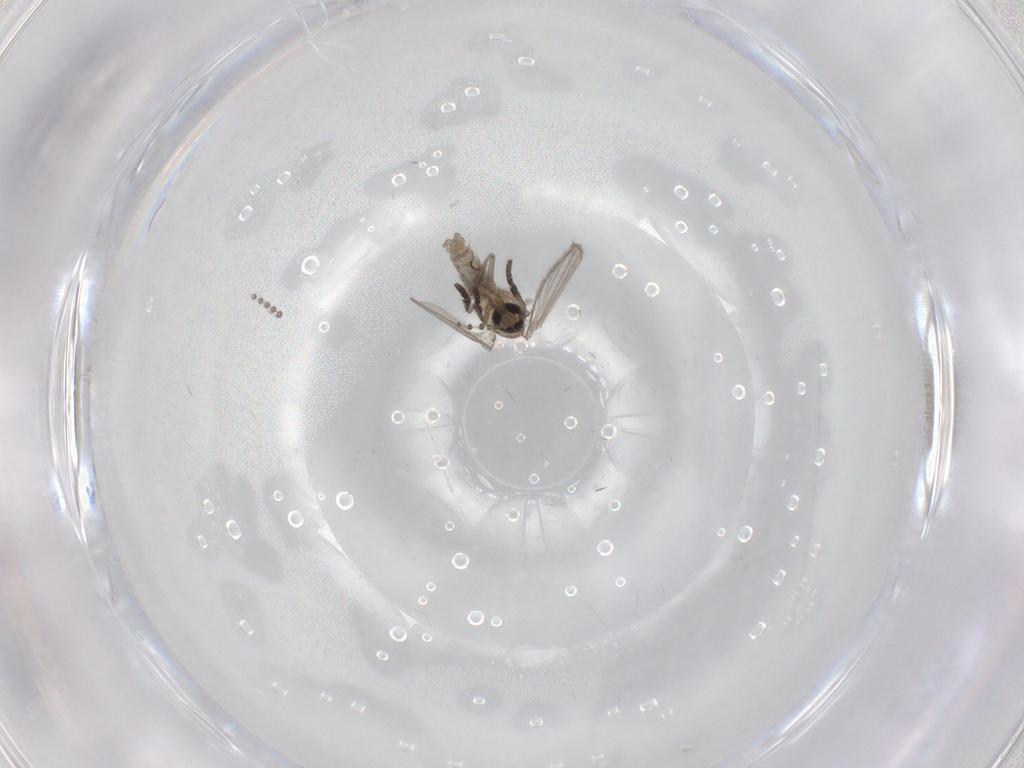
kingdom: Animalia
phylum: Arthropoda
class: Insecta
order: Diptera
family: Psychodidae
